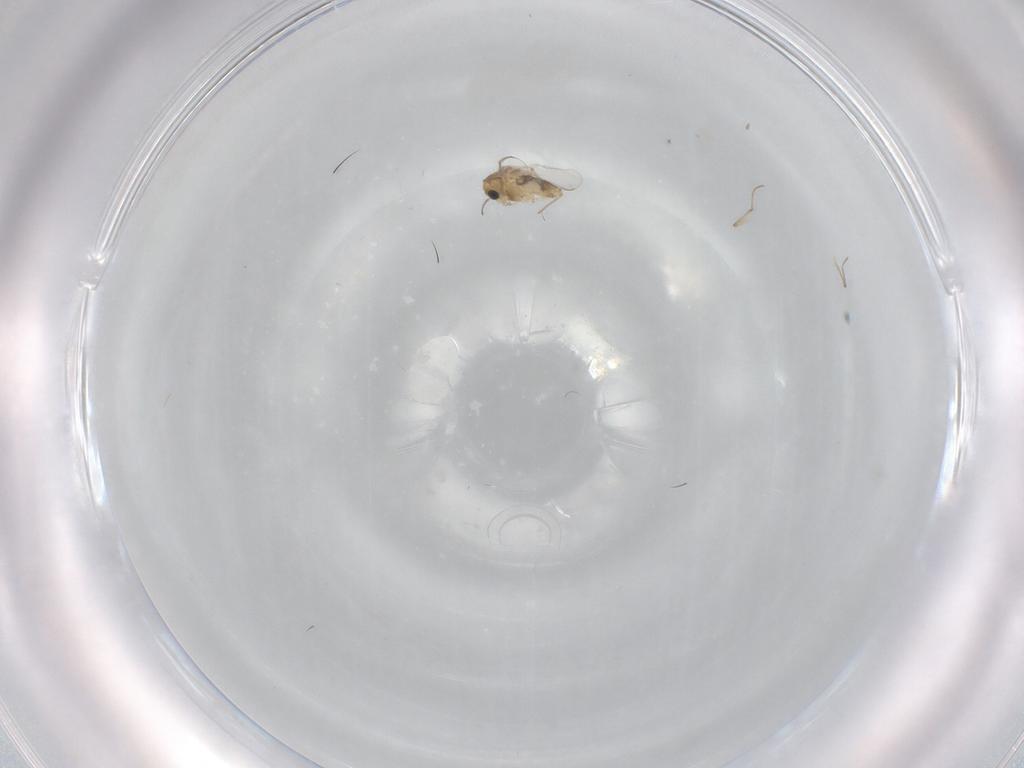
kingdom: Animalia
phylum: Arthropoda
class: Insecta
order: Diptera
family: Chironomidae
